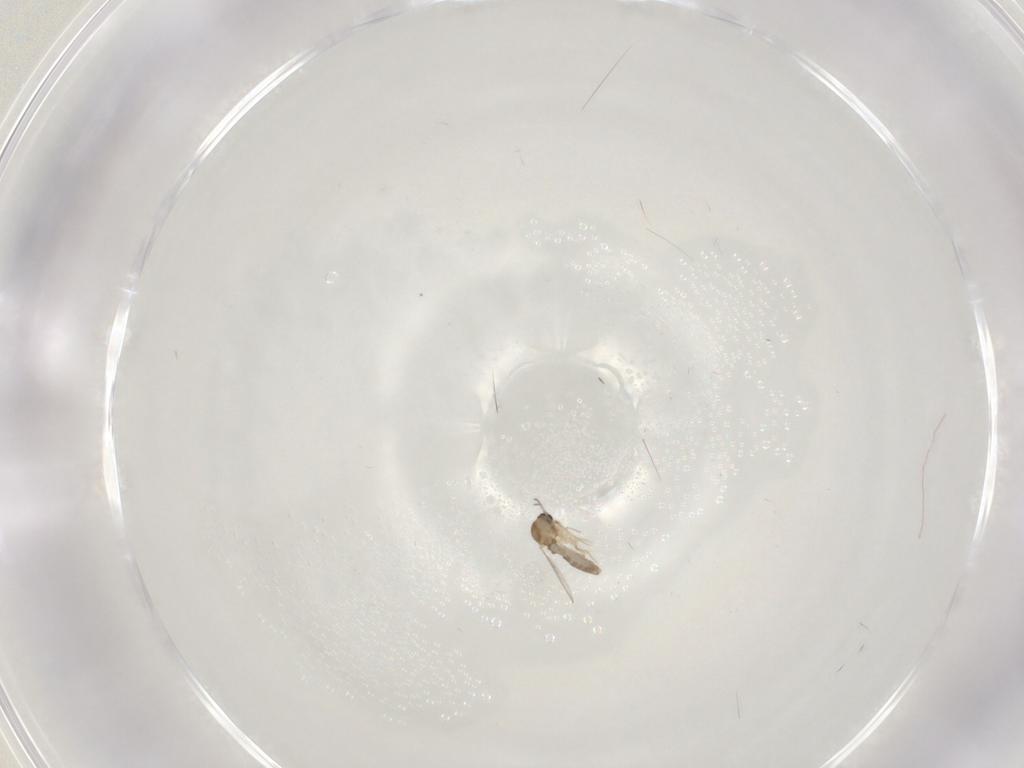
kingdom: Animalia
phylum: Arthropoda
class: Insecta
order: Diptera
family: Ceratopogonidae
